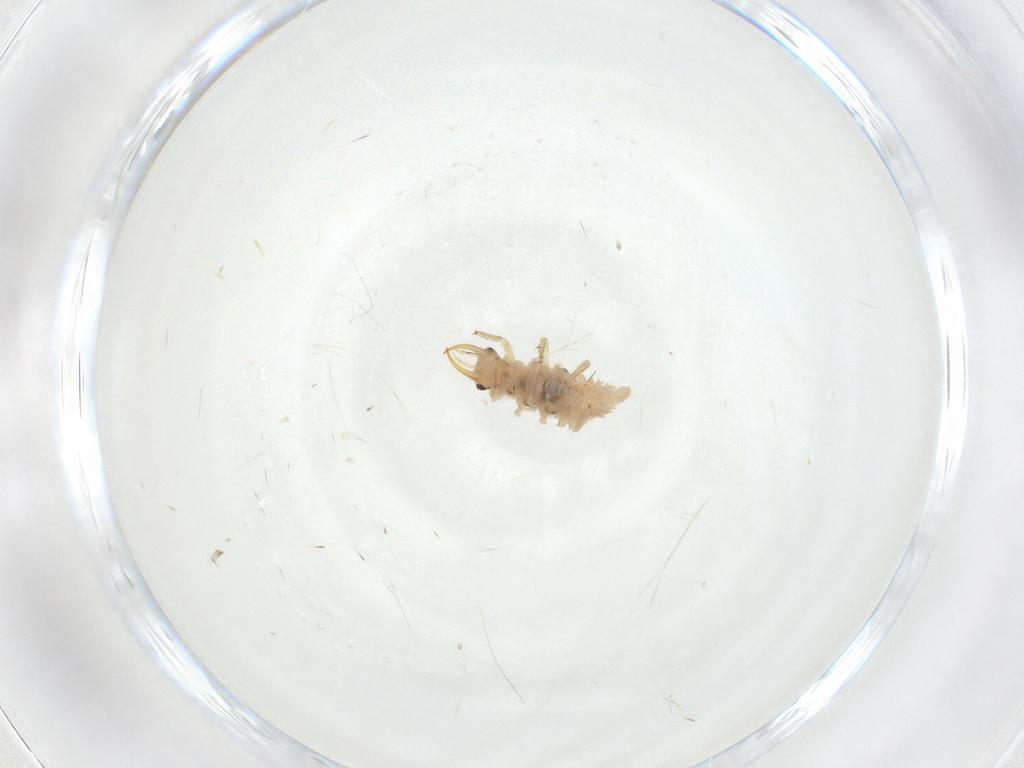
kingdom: Animalia
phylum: Arthropoda
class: Insecta
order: Neuroptera
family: Chrysopidae
